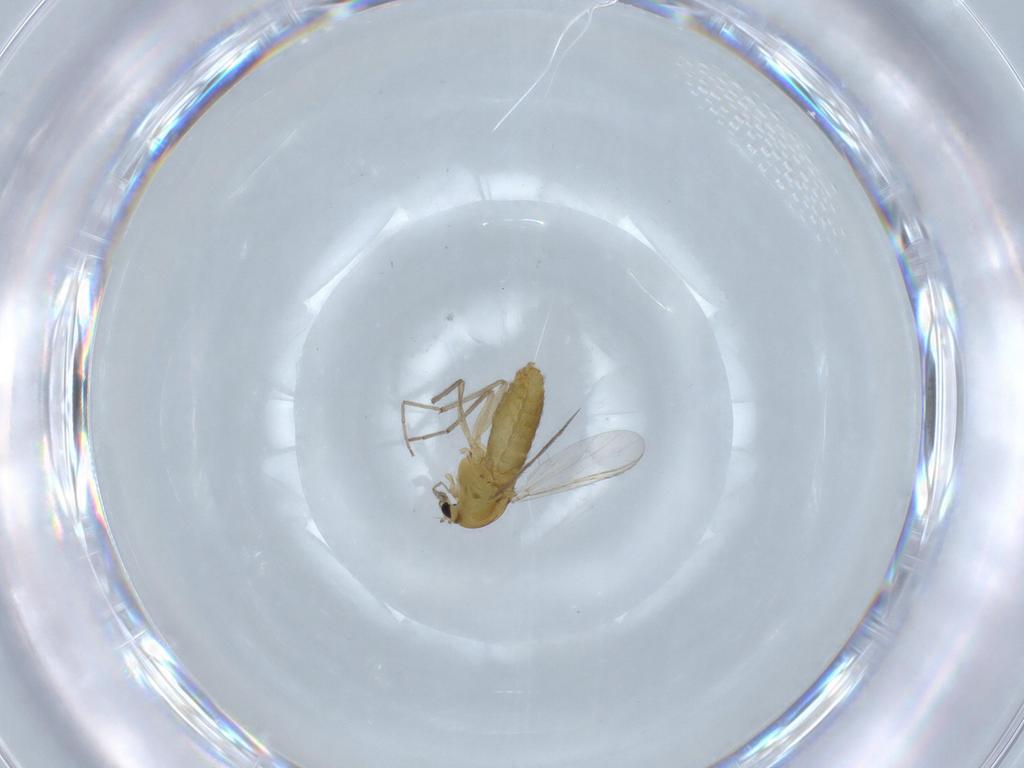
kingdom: Animalia
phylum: Arthropoda
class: Insecta
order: Diptera
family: Chironomidae
